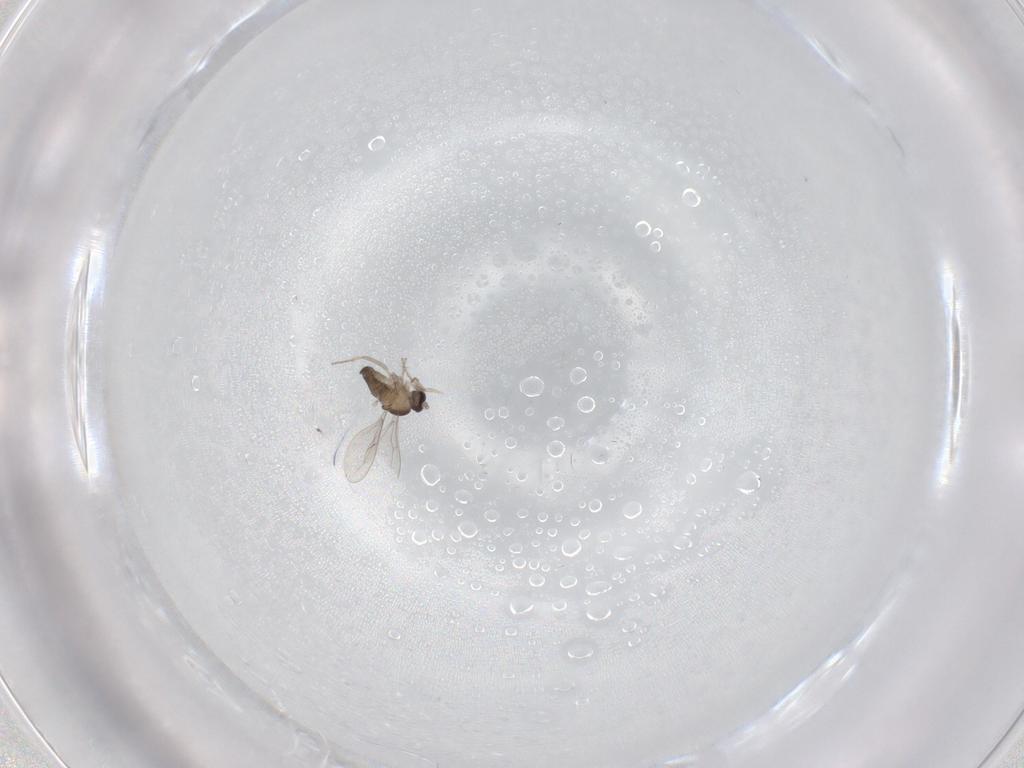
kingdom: Animalia
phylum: Arthropoda
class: Insecta
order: Diptera
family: Cecidomyiidae
